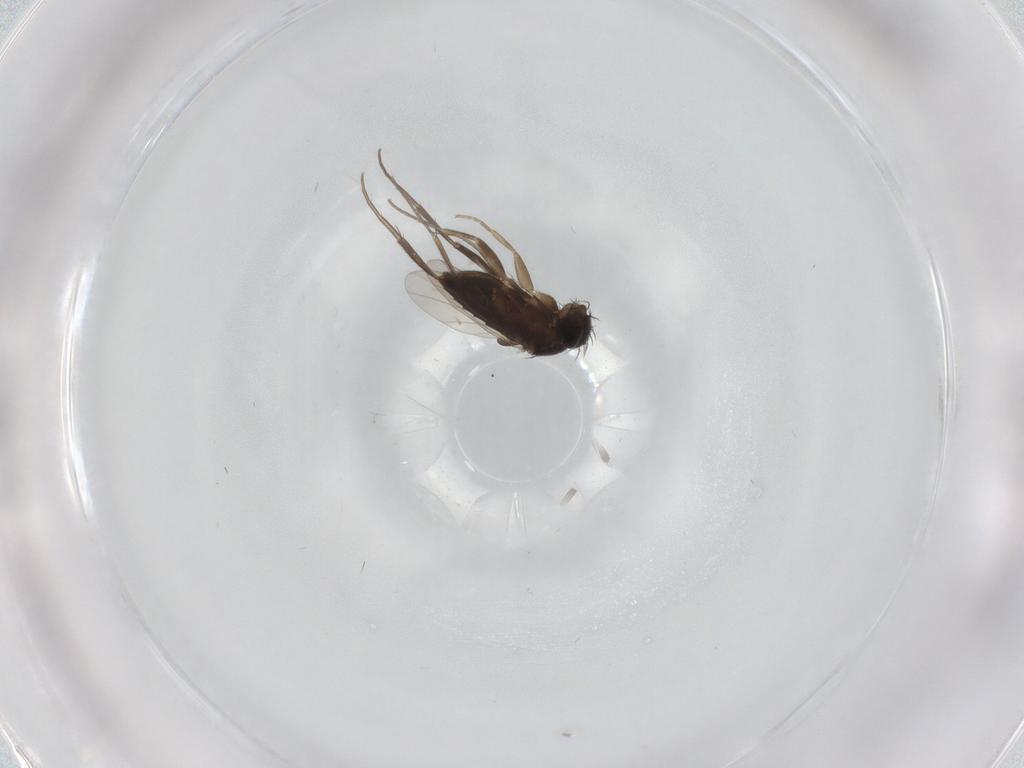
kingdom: Animalia
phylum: Arthropoda
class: Insecta
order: Diptera
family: Phoridae
